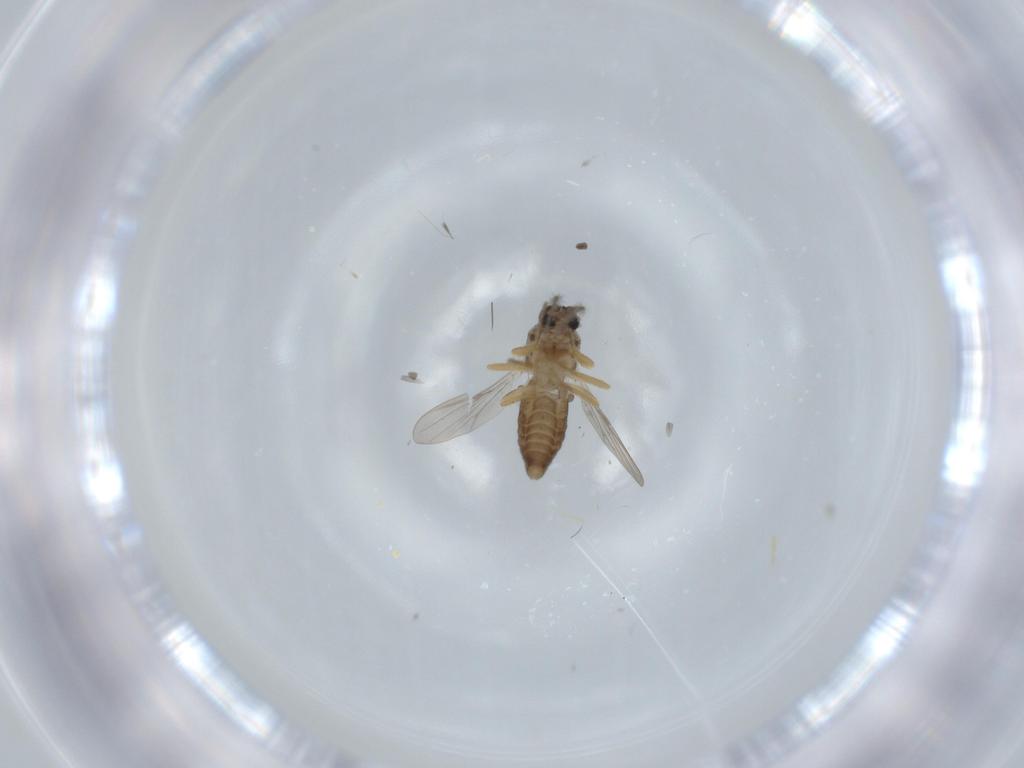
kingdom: Animalia
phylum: Arthropoda
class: Insecta
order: Diptera
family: Ceratopogonidae
